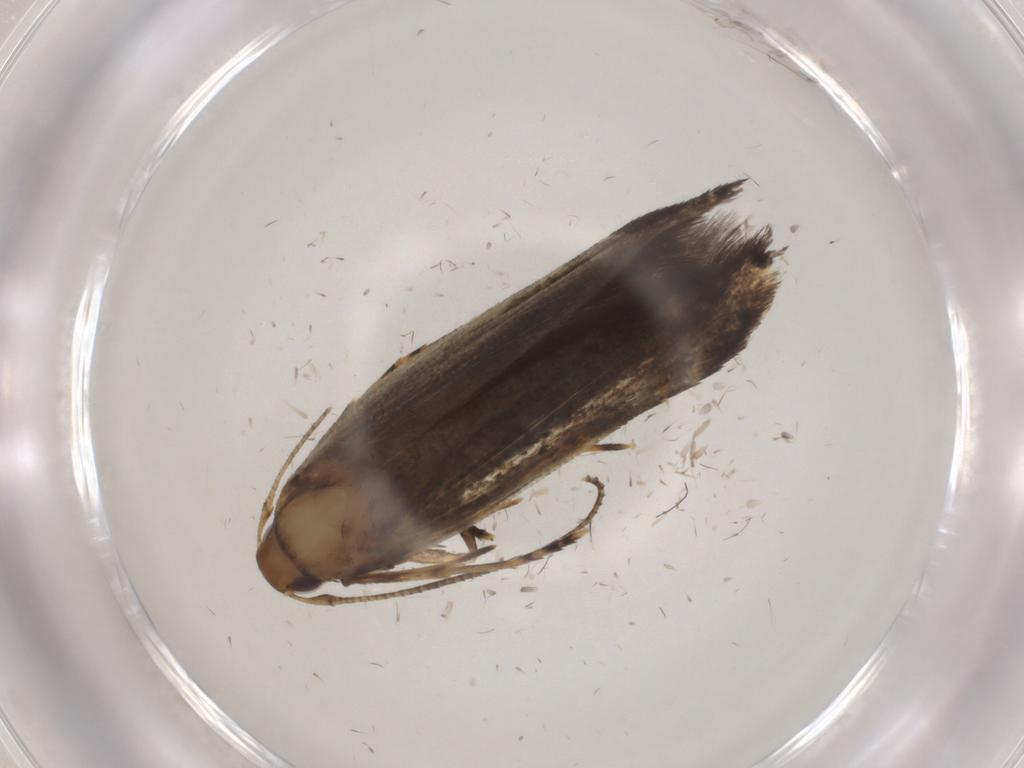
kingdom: Animalia
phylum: Arthropoda
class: Insecta
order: Lepidoptera
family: Cosmopterigidae
